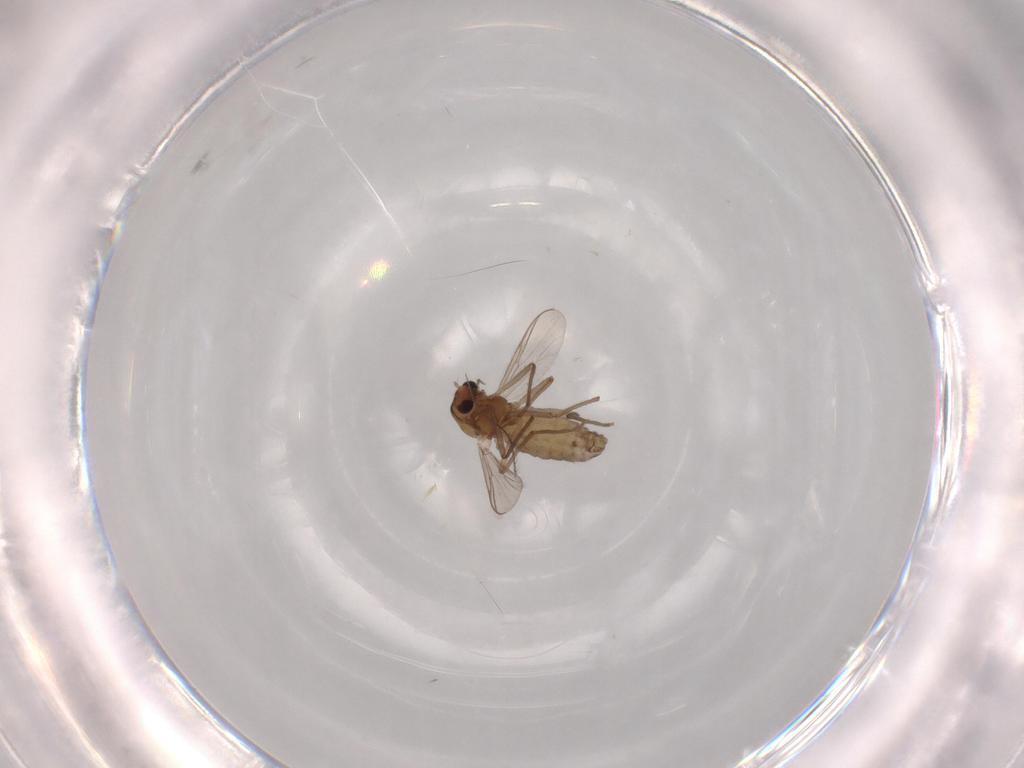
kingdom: Animalia
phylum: Arthropoda
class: Insecta
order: Diptera
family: Chironomidae
